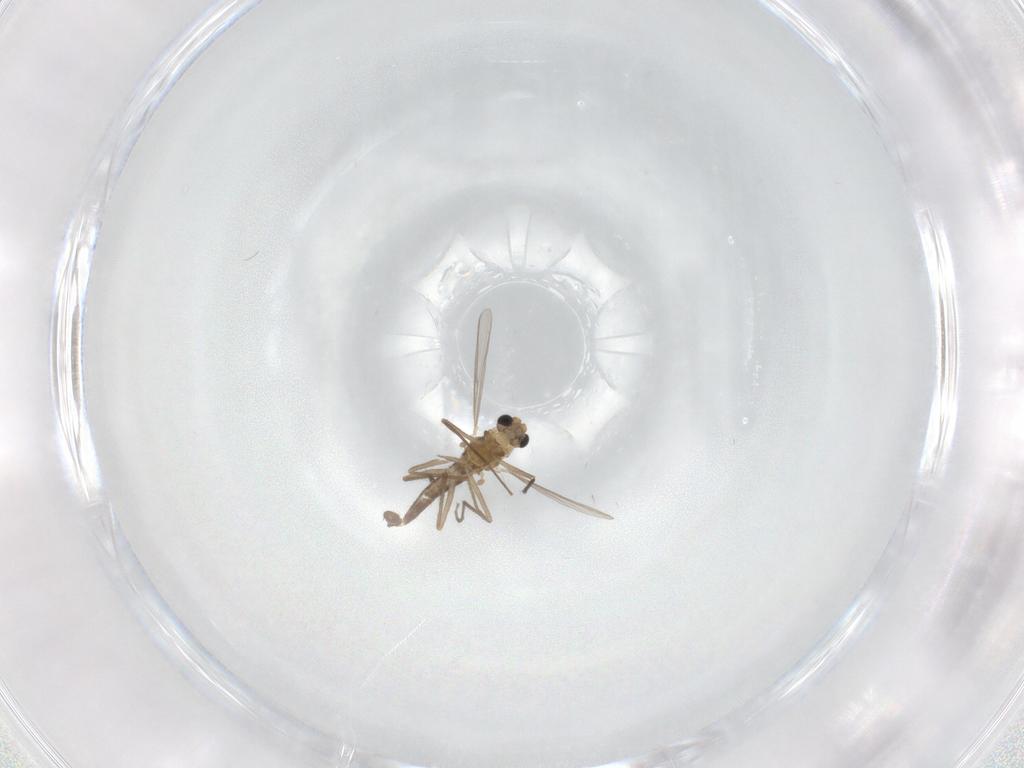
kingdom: Animalia
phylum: Arthropoda
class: Insecta
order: Diptera
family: Chironomidae
